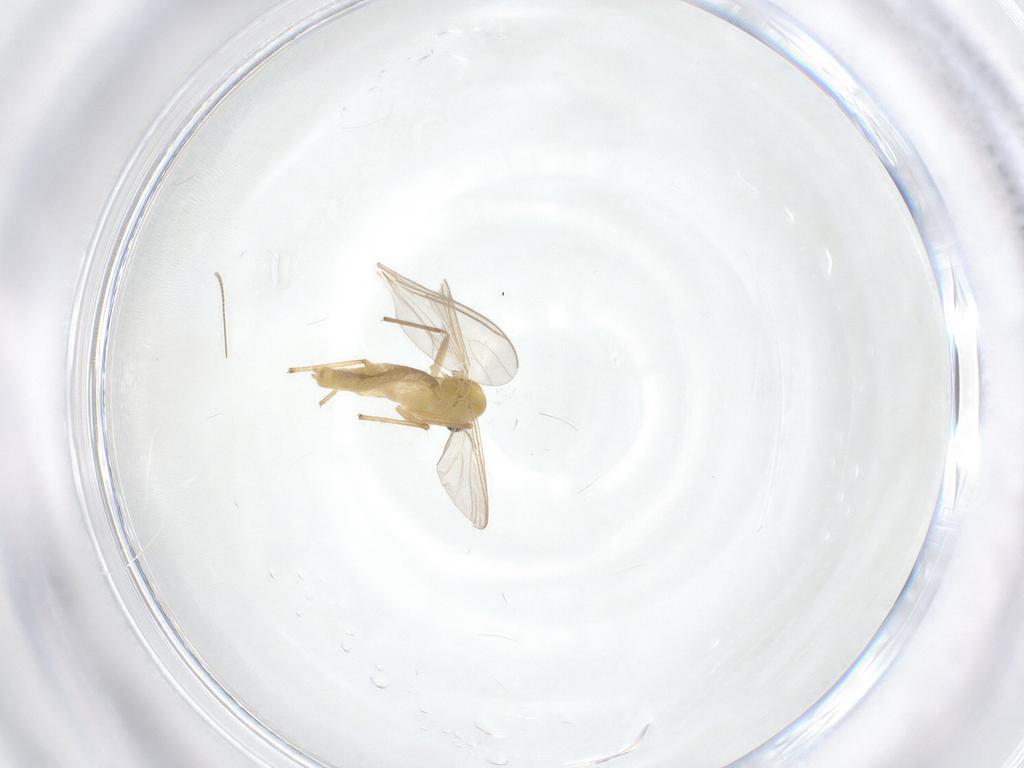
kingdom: Animalia
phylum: Arthropoda
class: Insecta
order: Diptera
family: Chironomidae
